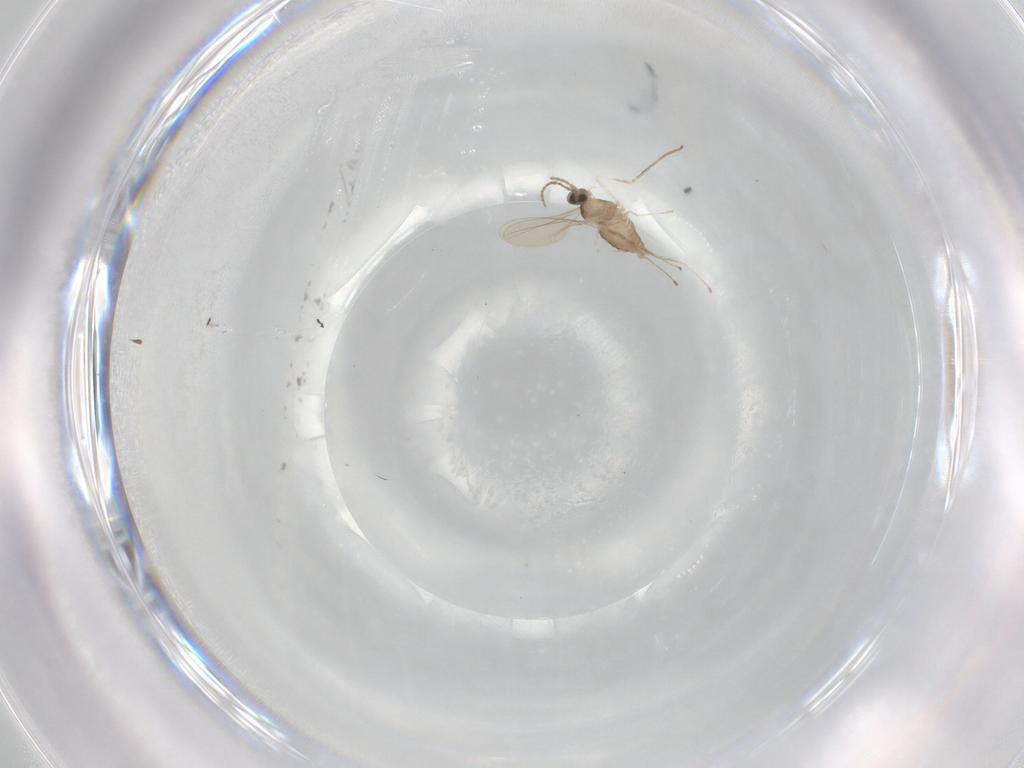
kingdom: Animalia
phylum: Arthropoda
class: Insecta
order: Diptera
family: Cecidomyiidae
